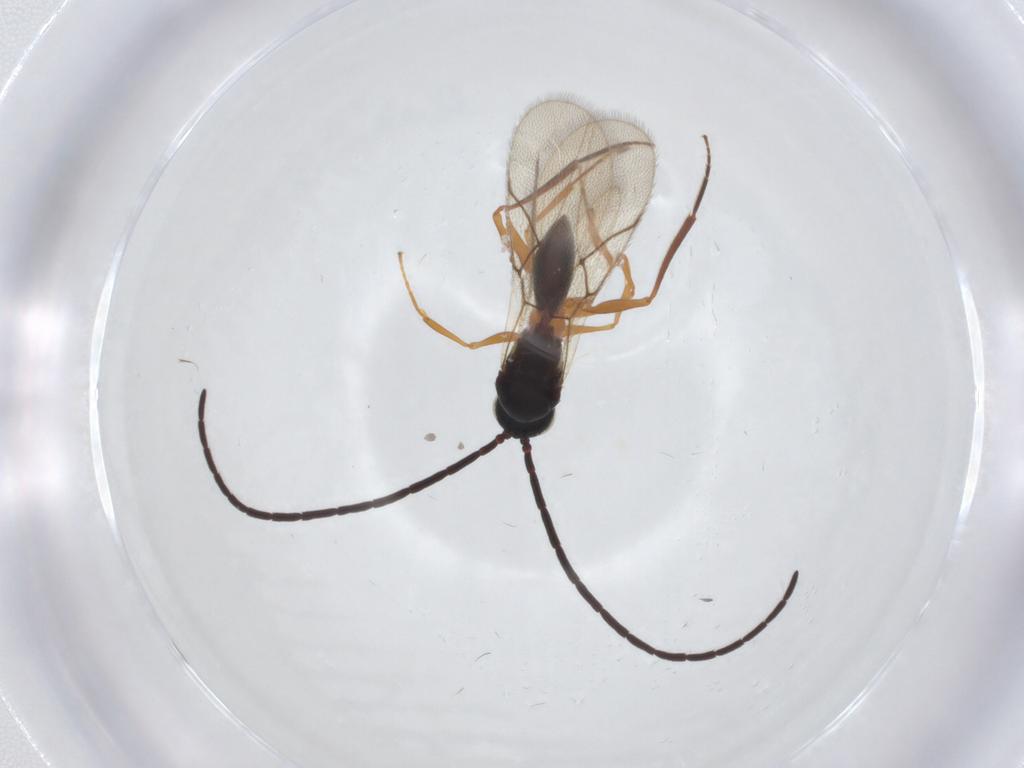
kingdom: Animalia
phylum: Arthropoda
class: Insecta
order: Hymenoptera
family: Figitidae
